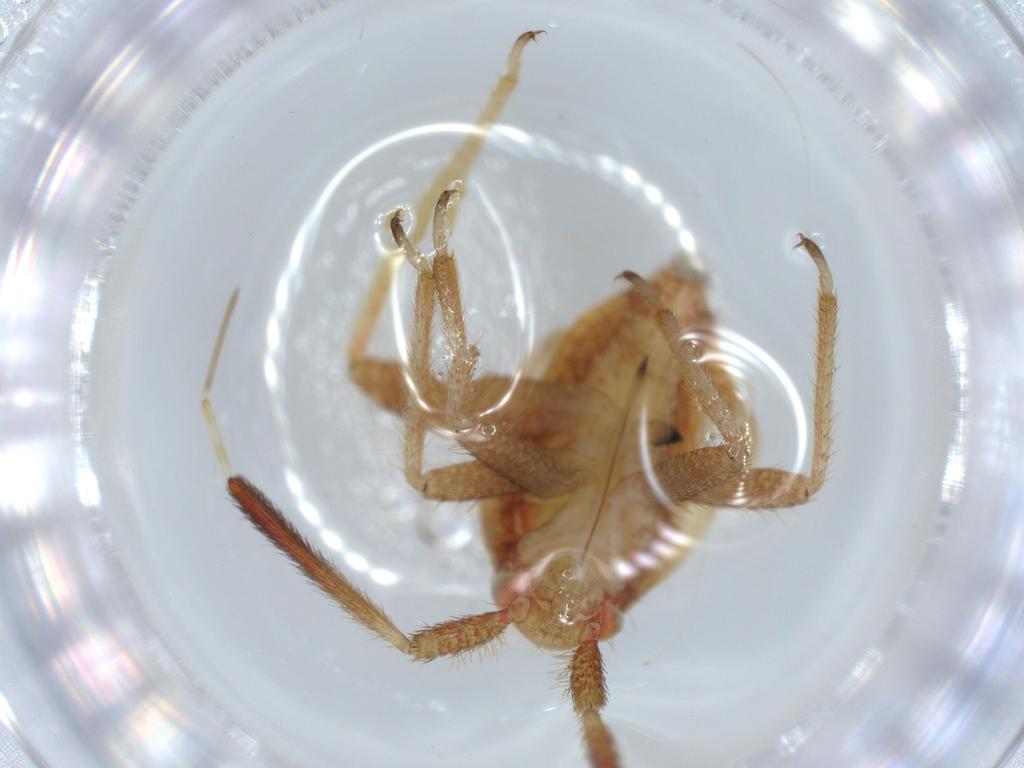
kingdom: Animalia
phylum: Arthropoda
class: Insecta
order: Hemiptera
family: Miridae
